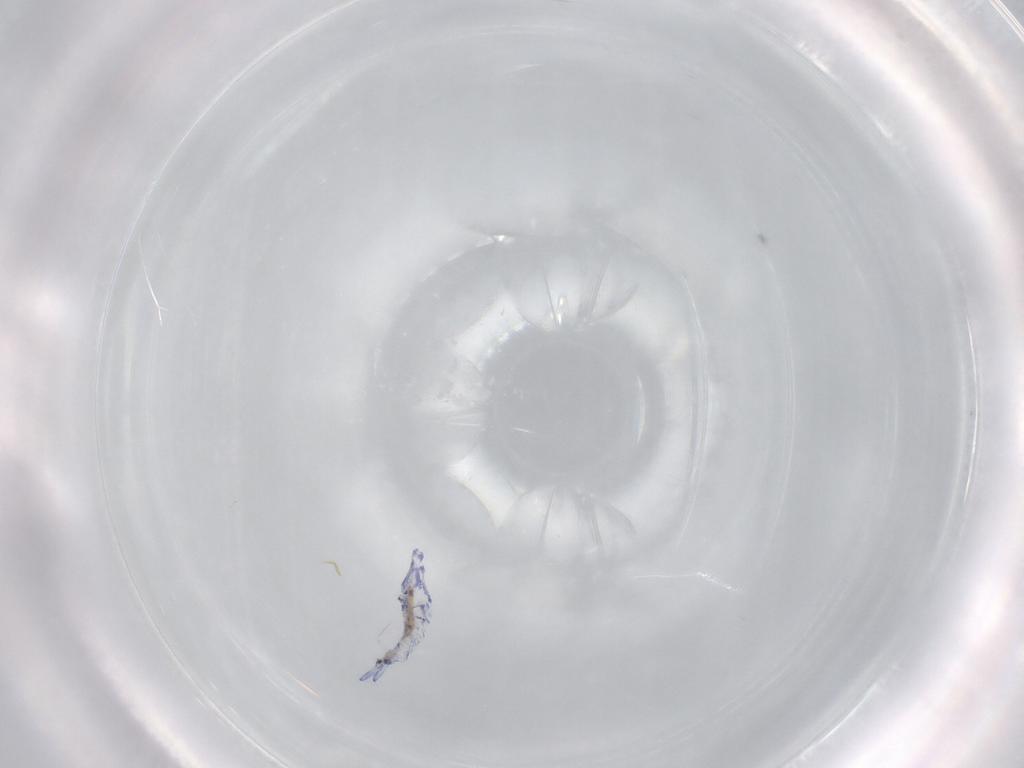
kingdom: Animalia
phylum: Arthropoda
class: Collembola
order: Entomobryomorpha
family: Entomobryidae
